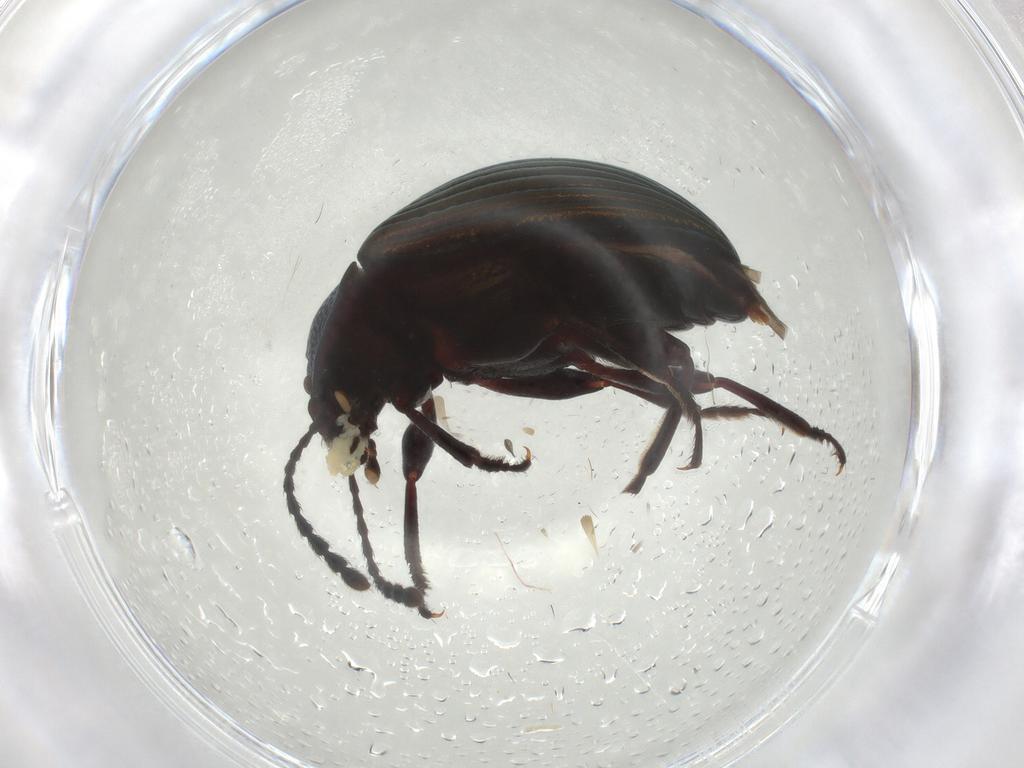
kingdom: Animalia
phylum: Arthropoda
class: Insecta
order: Coleoptera
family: Tenebrionidae
